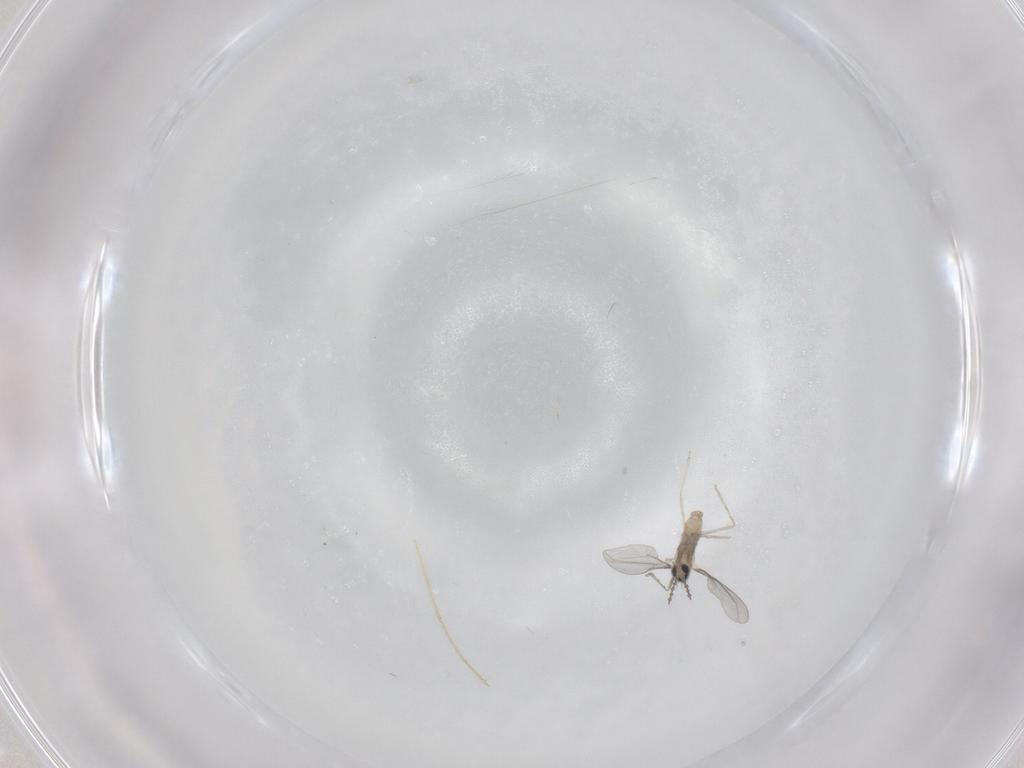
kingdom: Animalia
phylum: Arthropoda
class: Insecta
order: Diptera
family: Cecidomyiidae
